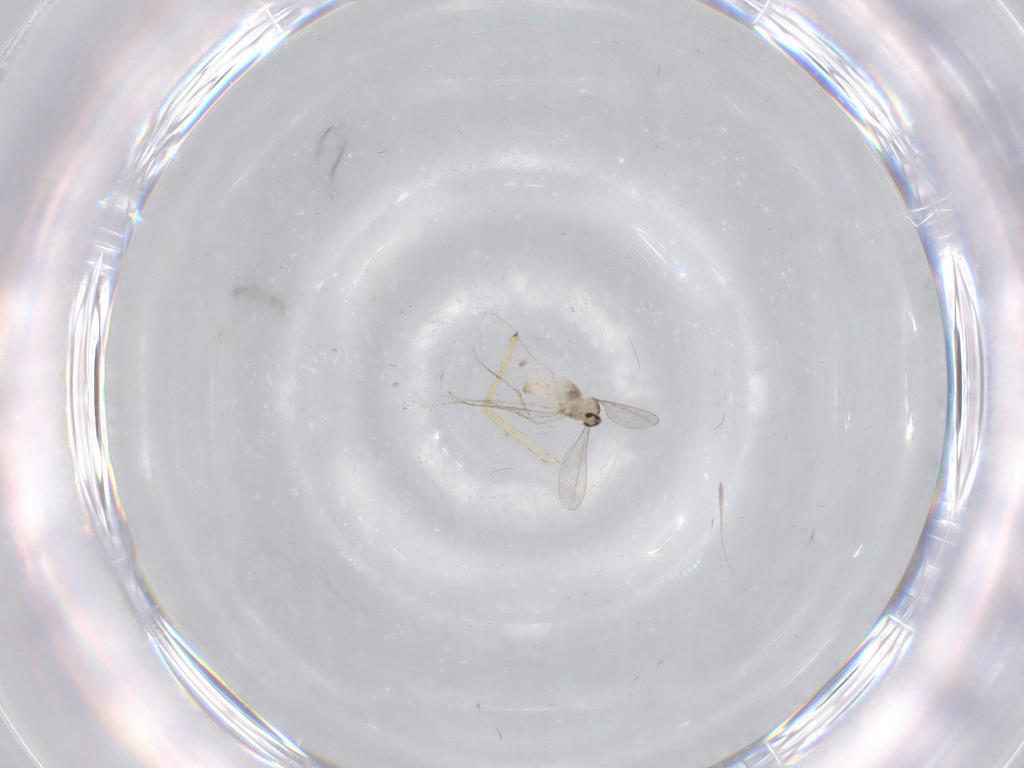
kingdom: Animalia
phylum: Arthropoda
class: Insecta
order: Diptera
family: Cecidomyiidae
